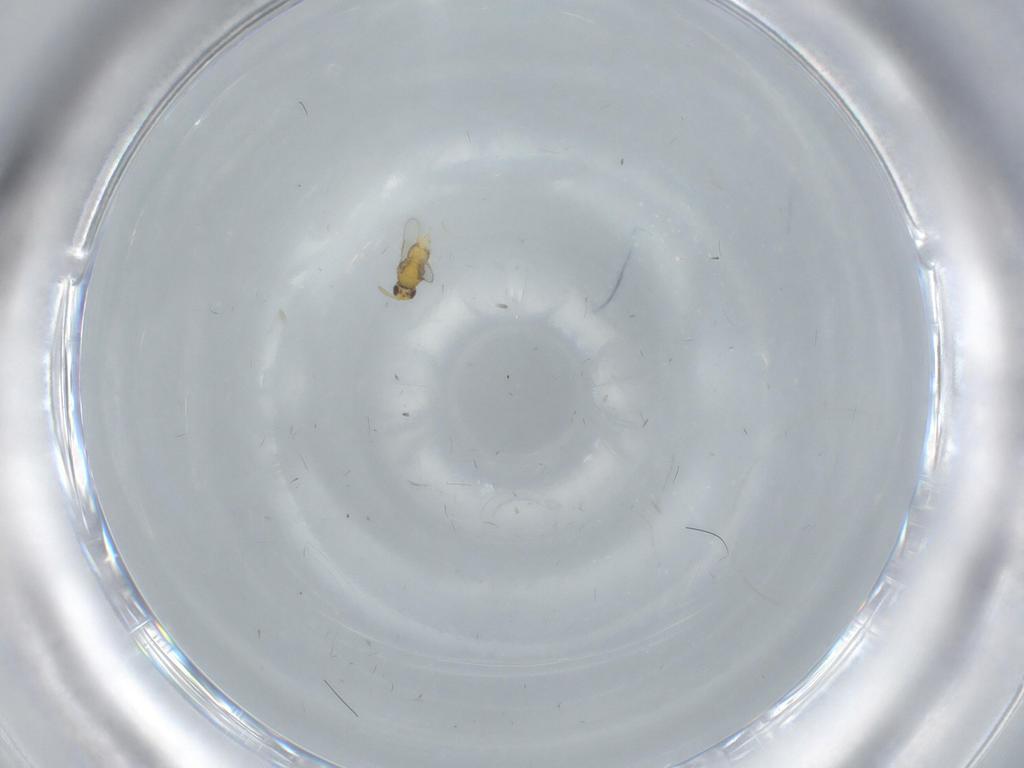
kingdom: Animalia
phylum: Arthropoda
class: Insecta
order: Hymenoptera
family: Aphelinidae
